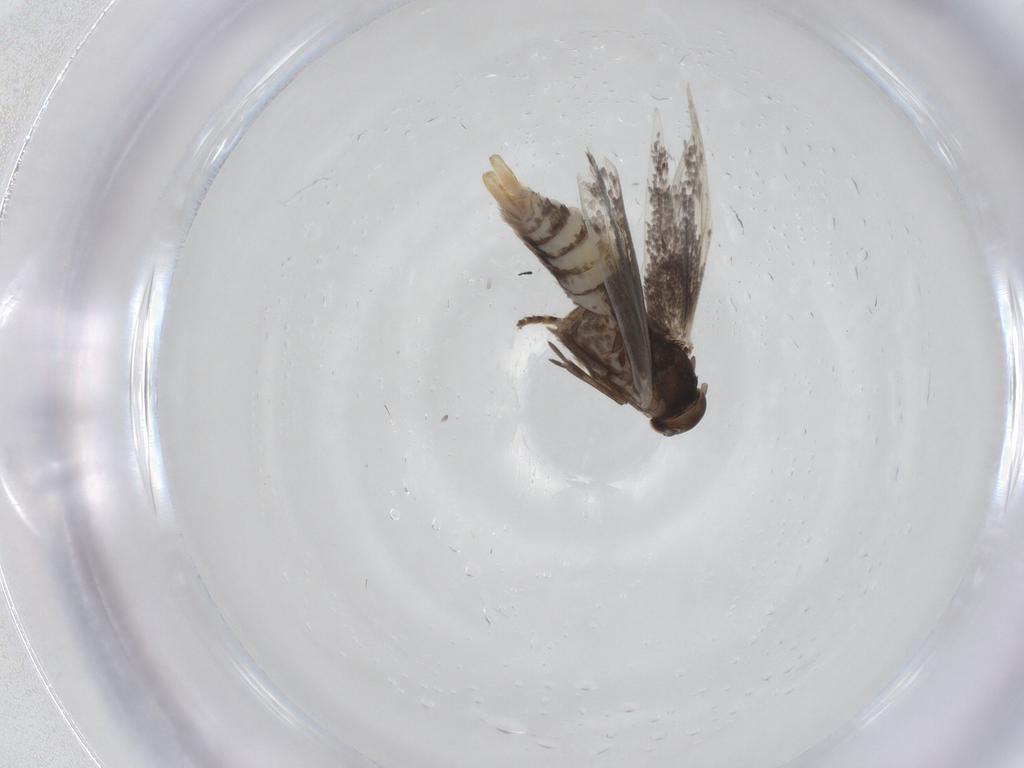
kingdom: Animalia
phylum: Arthropoda
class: Insecta
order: Lepidoptera
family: Elachistidae
